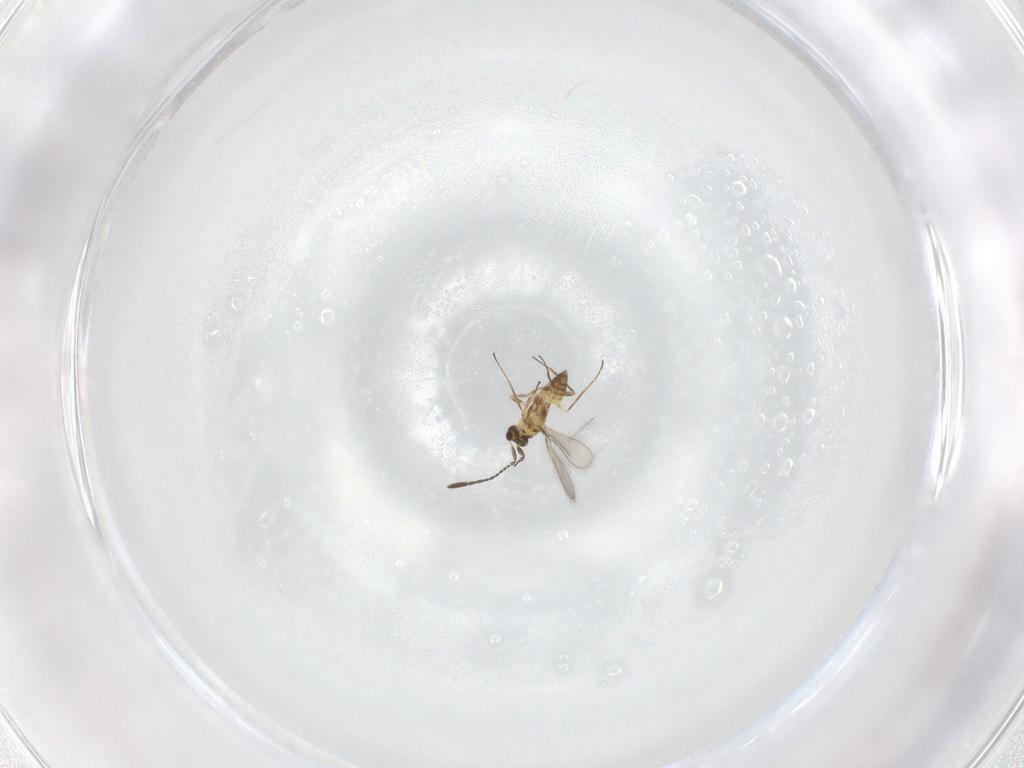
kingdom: Animalia
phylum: Arthropoda
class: Insecta
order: Hymenoptera
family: Mymaridae
